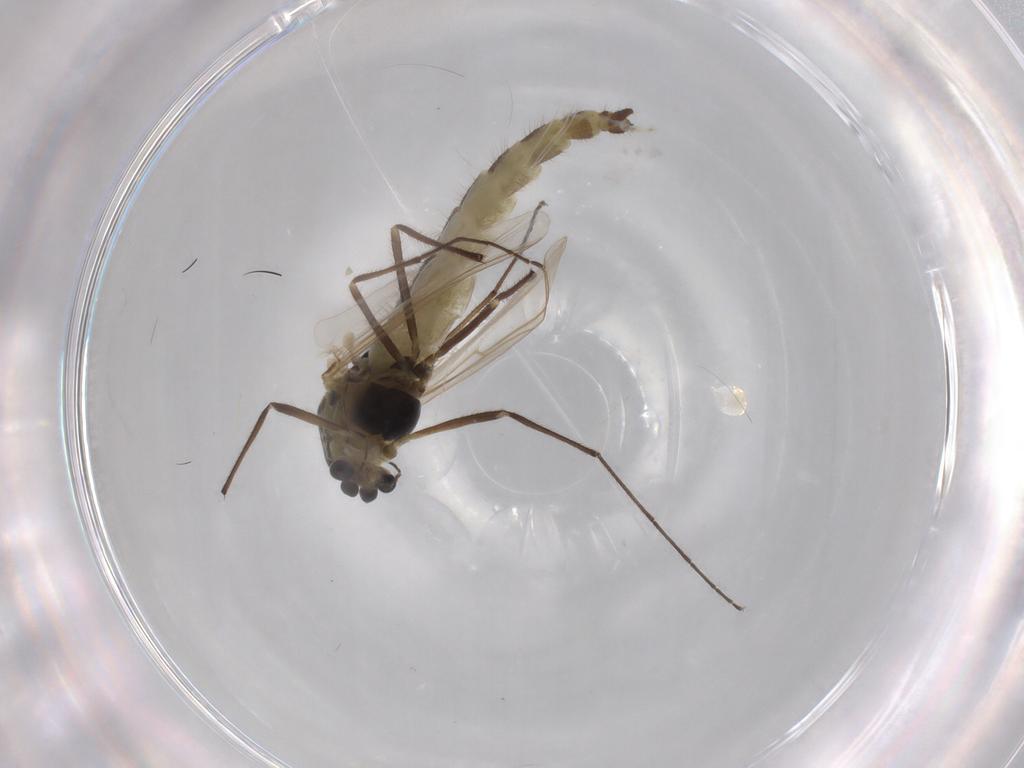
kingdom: Animalia
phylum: Arthropoda
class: Insecta
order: Diptera
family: Chironomidae
